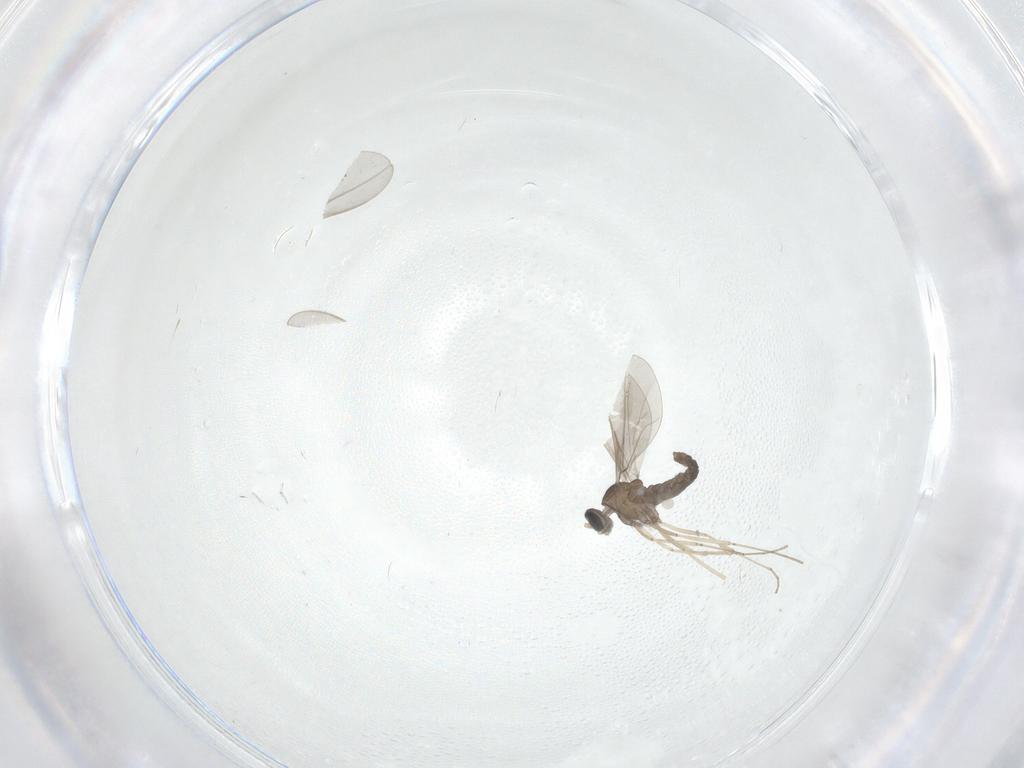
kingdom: Animalia
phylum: Arthropoda
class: Insecta
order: Diptera
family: Cecidomyiidae
